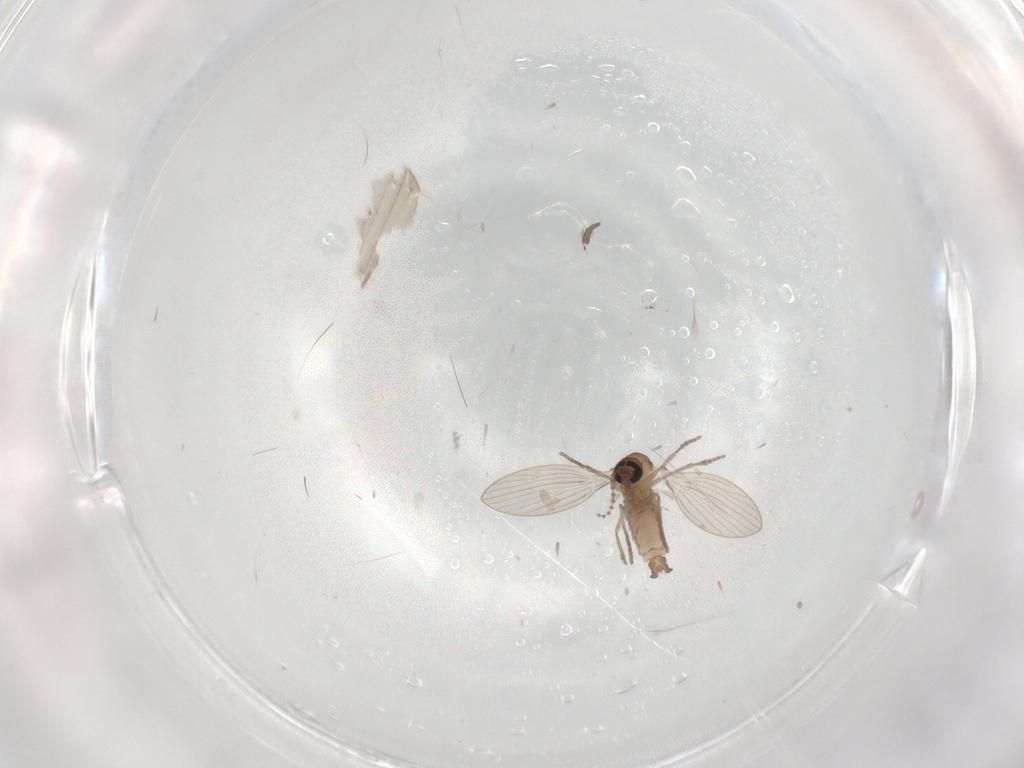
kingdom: Animalia
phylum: Arthropoda
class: Insecta
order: Diptera
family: Psychodidae
